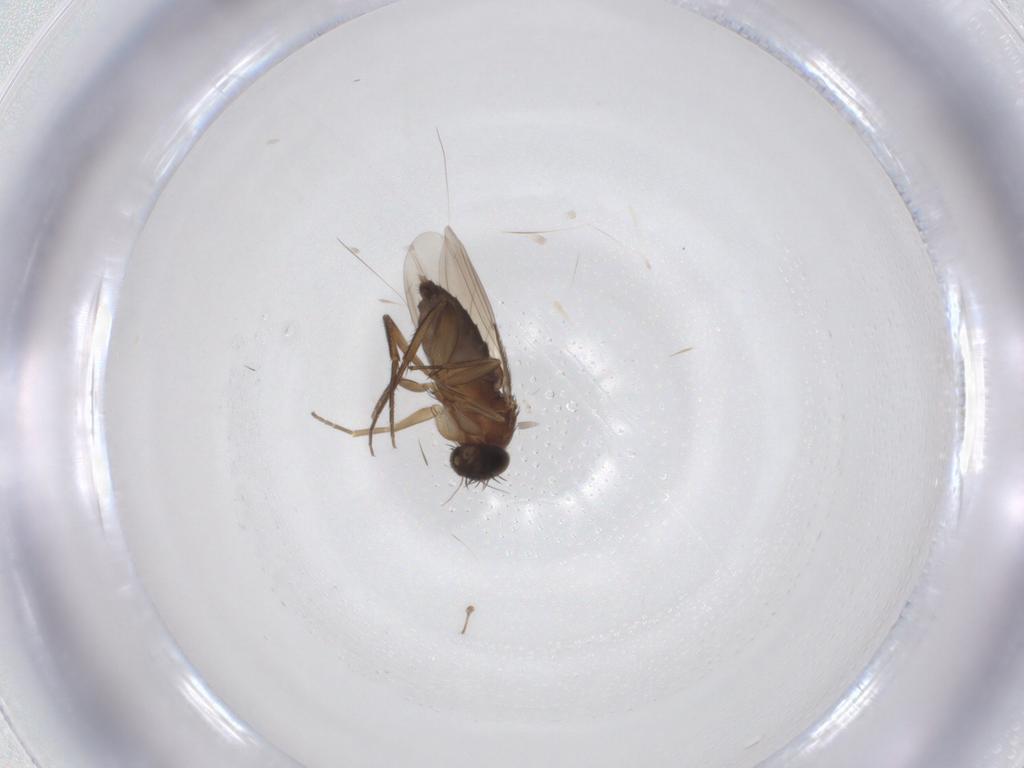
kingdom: Animalia
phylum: Arthropoda
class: Insecta
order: Diptera
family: Phoridae
